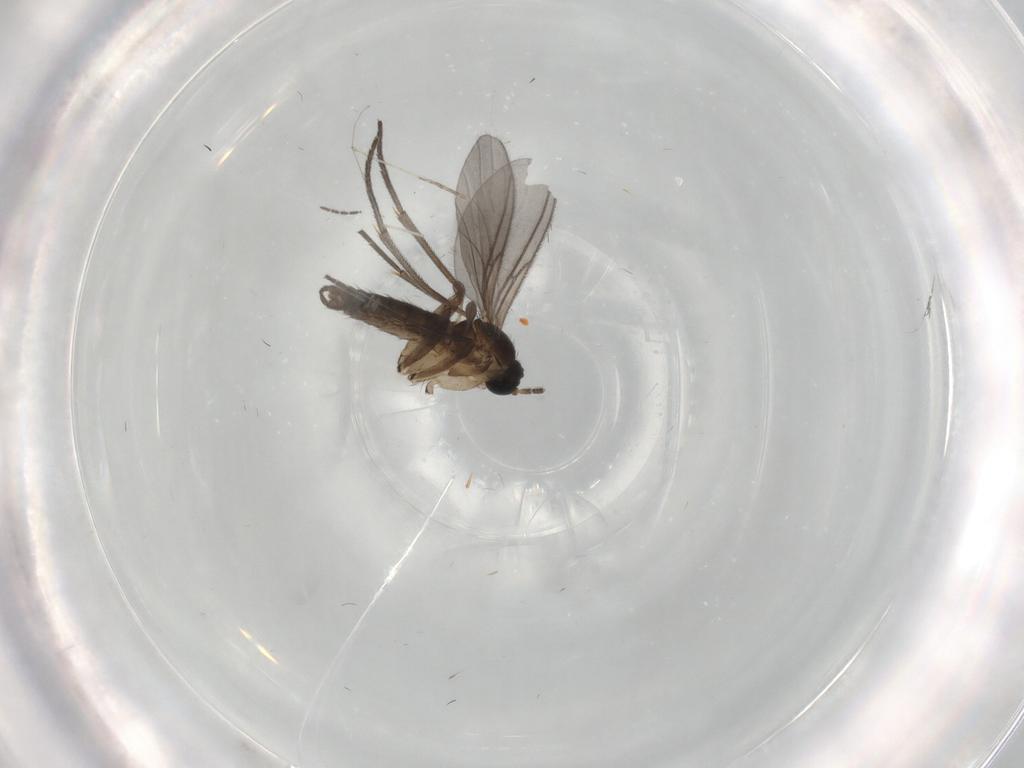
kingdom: Animalia
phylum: Arthropoda
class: Insecta
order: Diptera
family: Sciaridae
